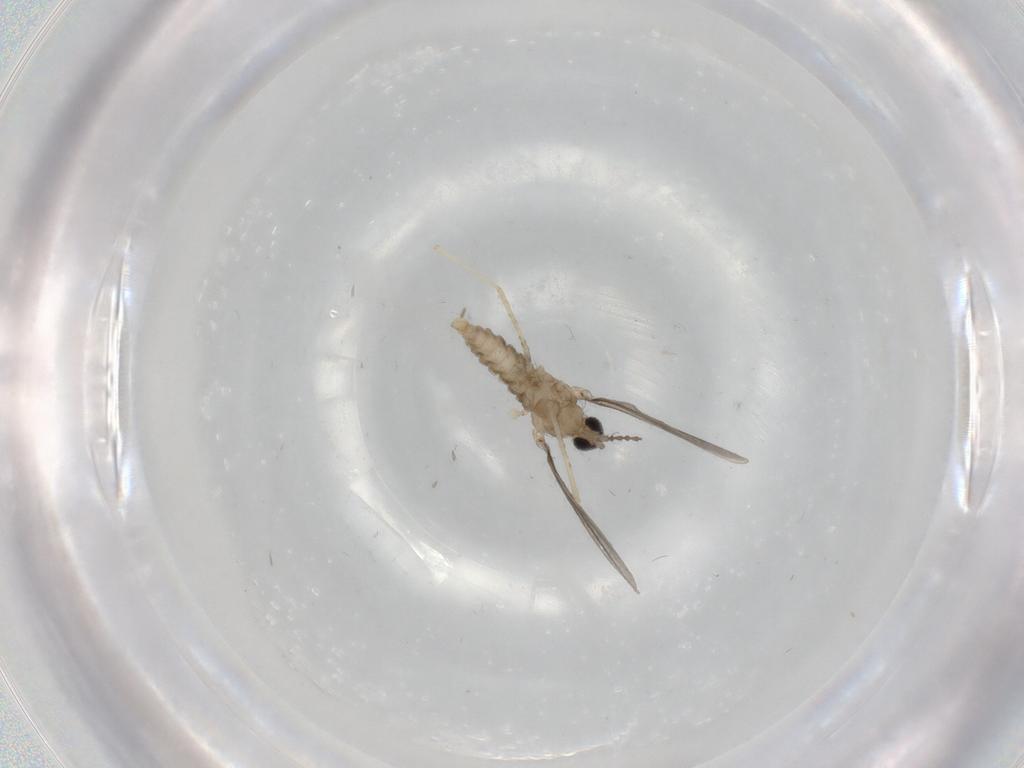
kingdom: Animalia
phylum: Arthropoda
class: Insecta
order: Diptera
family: Cecidomyiidae
